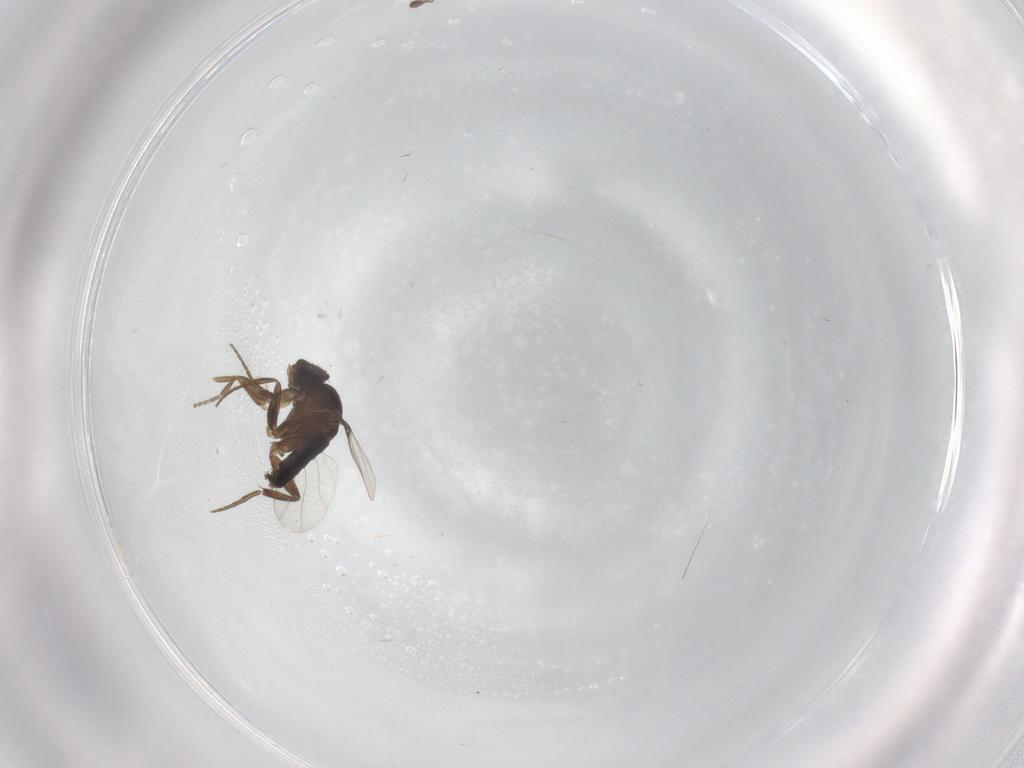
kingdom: Animalia
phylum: Arthropoda
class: Insecta
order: Diptera
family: Phoridae
